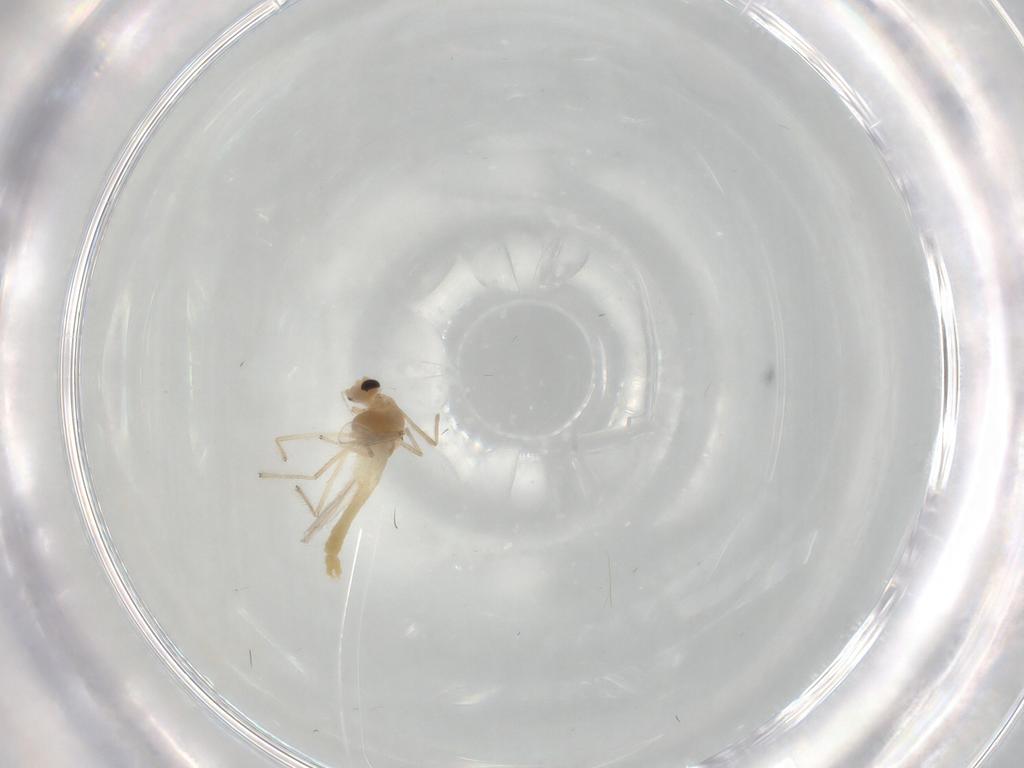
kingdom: Animalia
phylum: Arthropoda
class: Insecta
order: Diptera
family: Chironomidae
